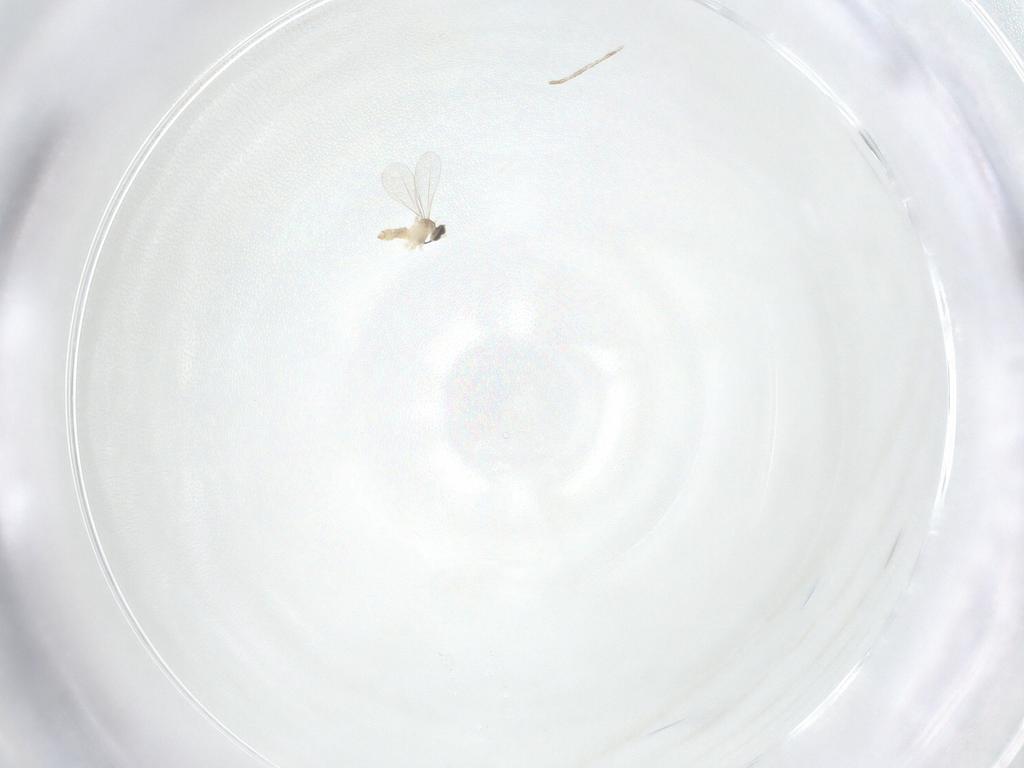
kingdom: Animalia
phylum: Arthropoda
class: Insecta
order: Diptera
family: Cecidomyiidae
